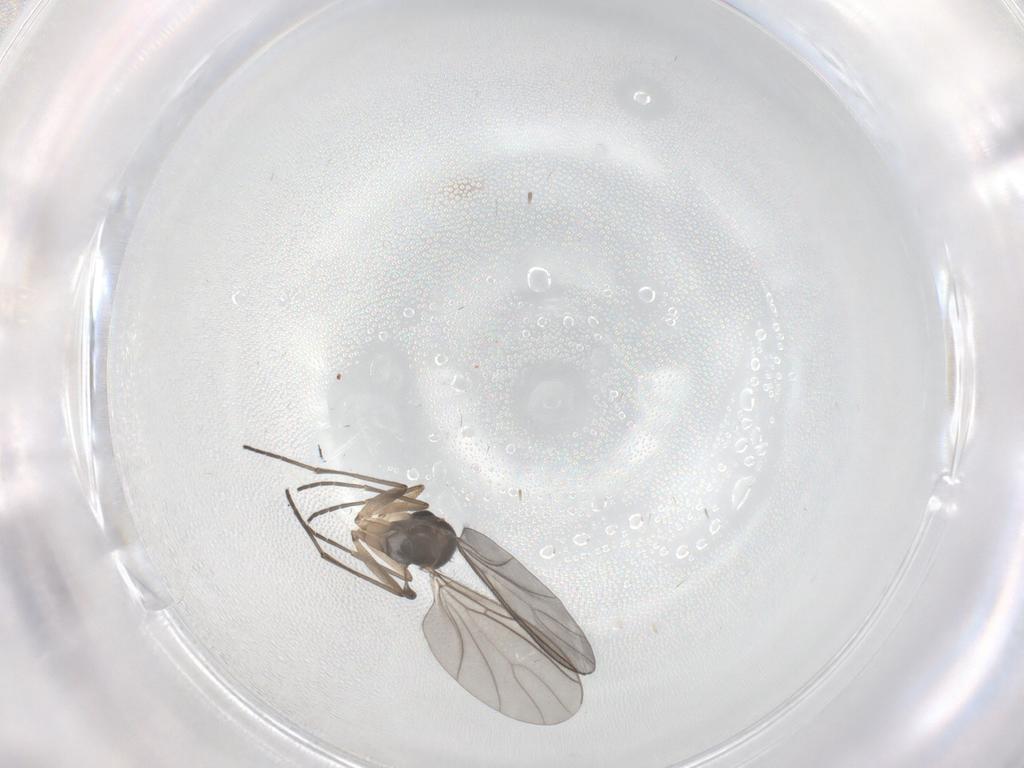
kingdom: Animalia
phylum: Arthropoda
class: Insecta
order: Diptera
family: Sciaridae
